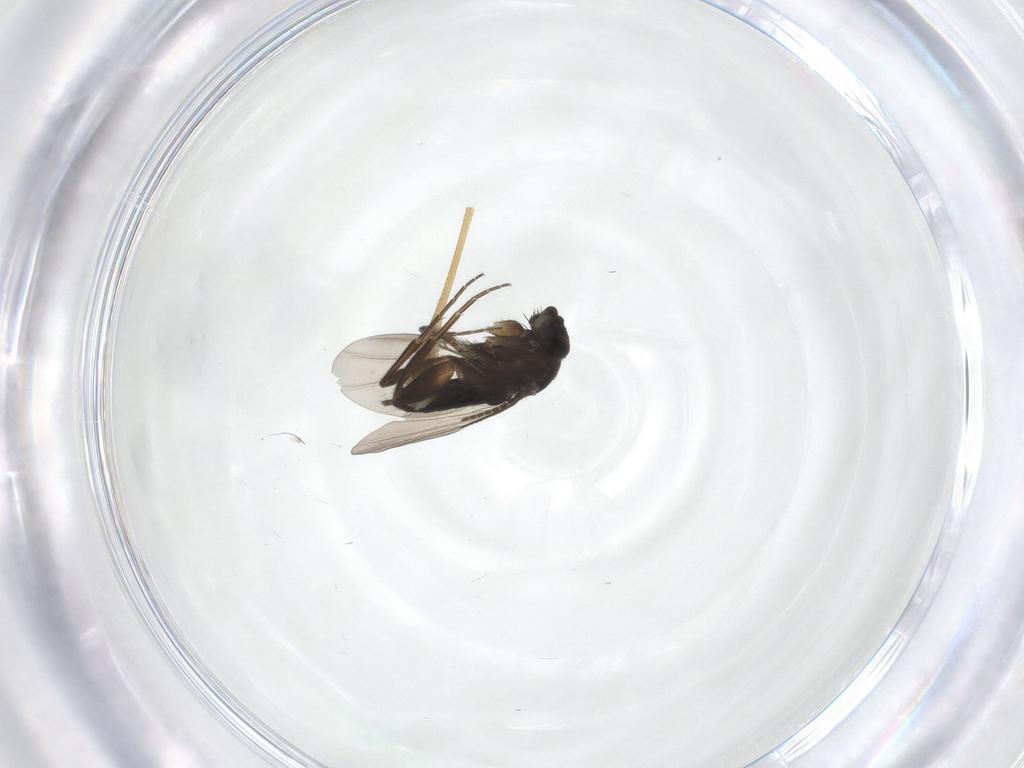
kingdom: Animalia
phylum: Arthropoda
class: Insecta
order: Diptera
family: Phoridae
